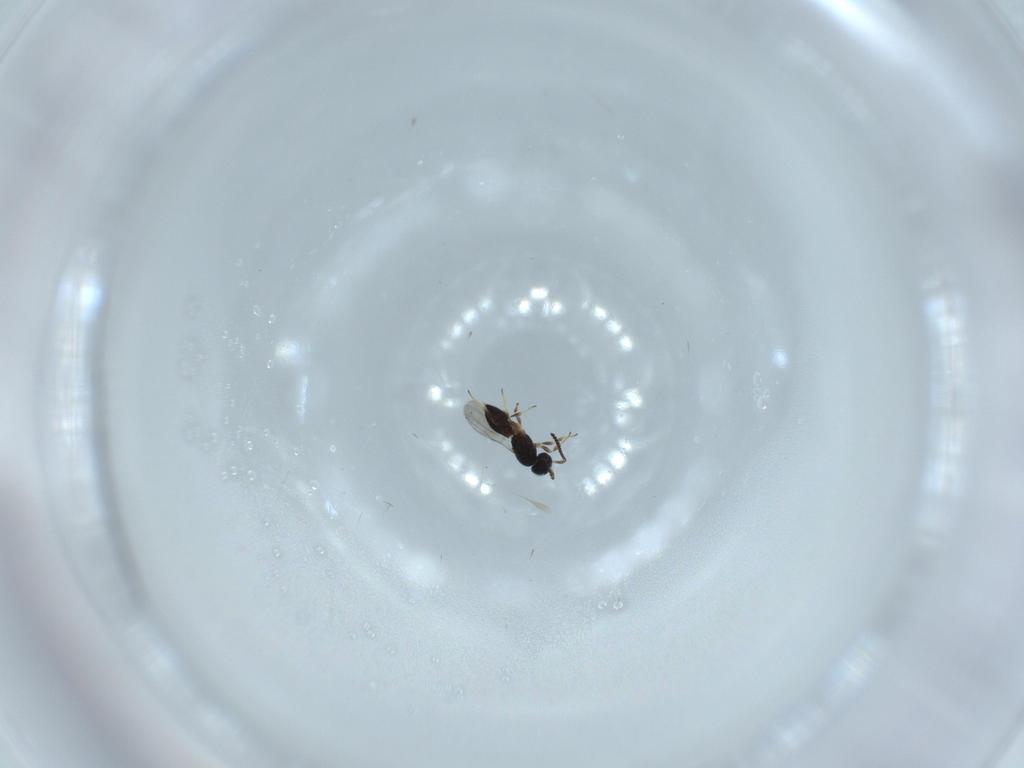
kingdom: Animalia
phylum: Arthropoda
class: Insecta
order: Hymenoptera
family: Scelionidae
